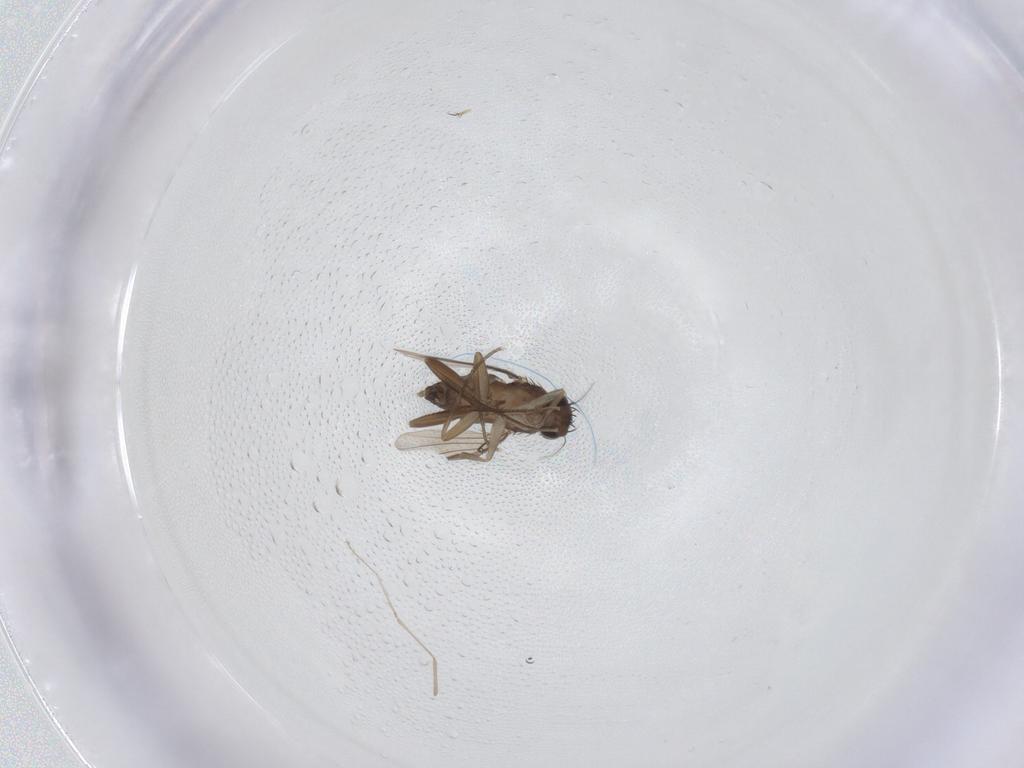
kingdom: Animalia
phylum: Arthropoda
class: Insecta
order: Diptera
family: Phoridae
